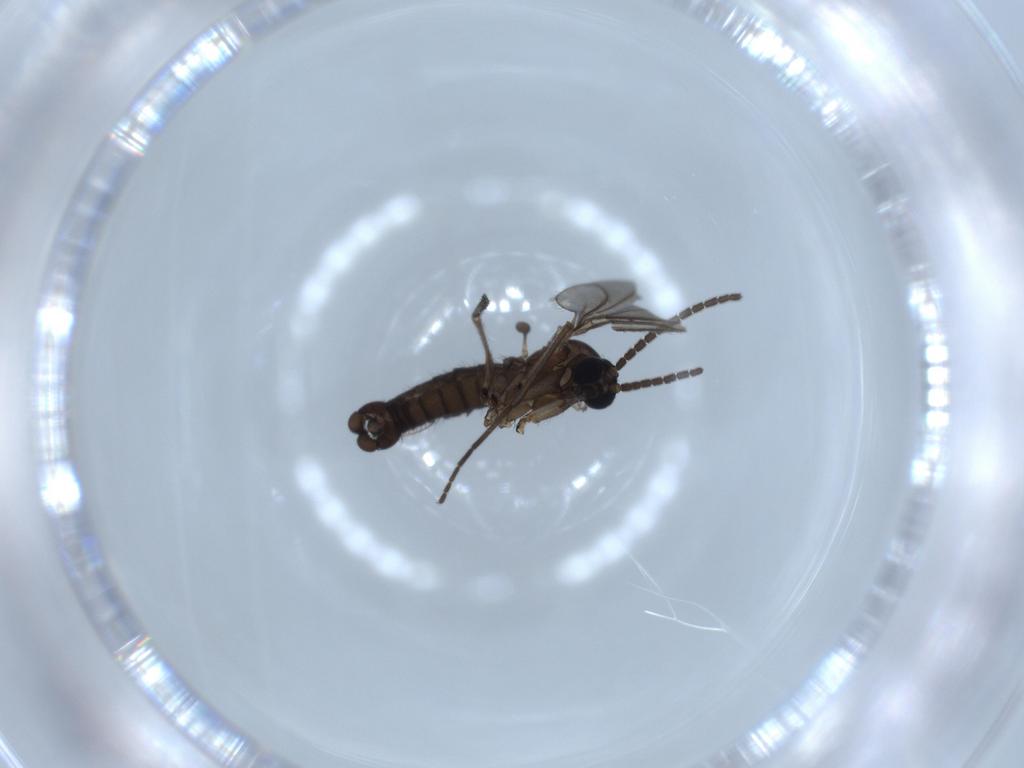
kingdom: Animalia
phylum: Arthropoda
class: Insecta
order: Diptera
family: Sciaridae
